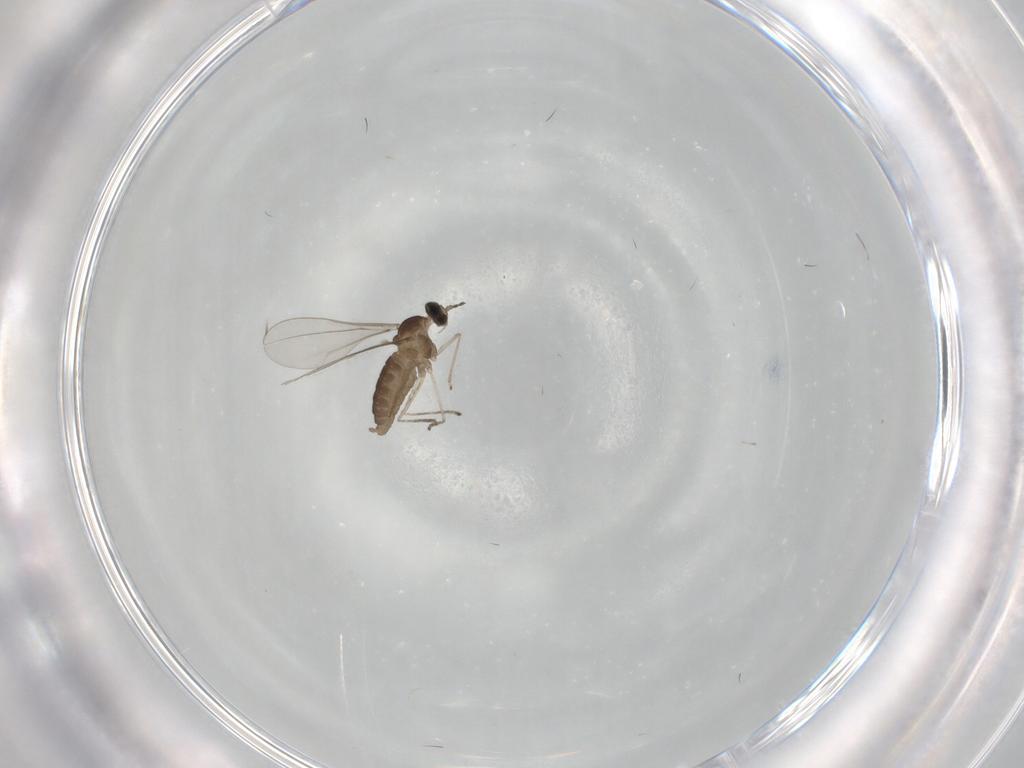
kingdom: Animalia
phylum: Arthropoda
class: Insecta
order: Diptera
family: Cecidomyiidae
